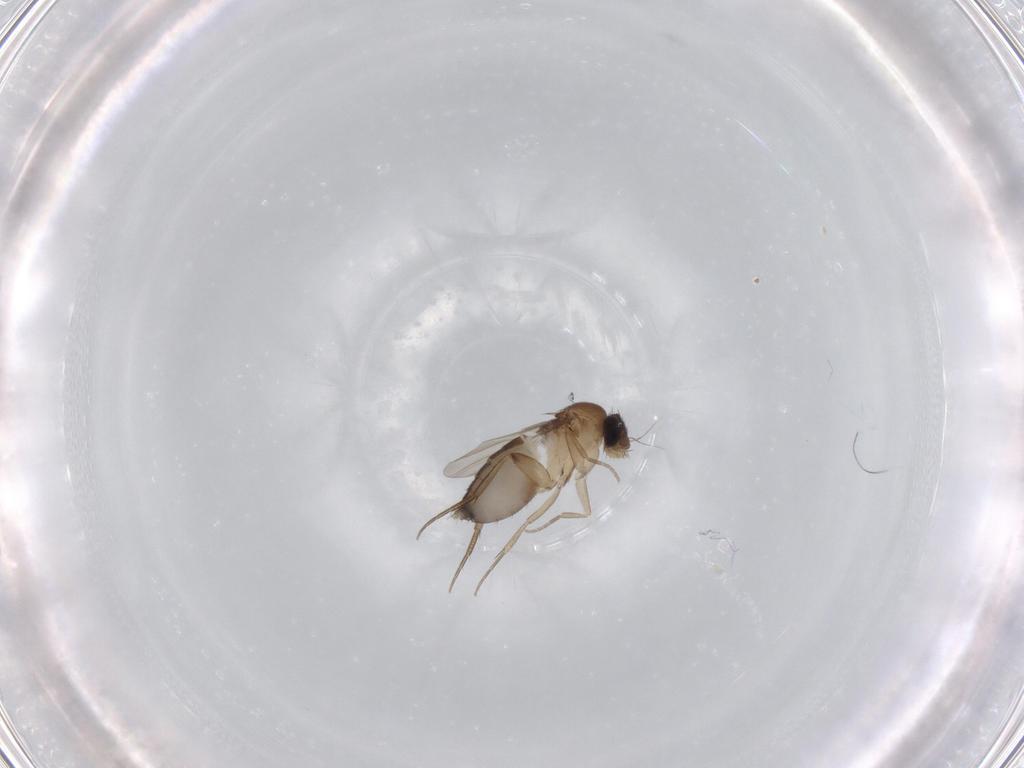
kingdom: Animalia
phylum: Arthropoda
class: Insecta
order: Diptera
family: Phoridae
